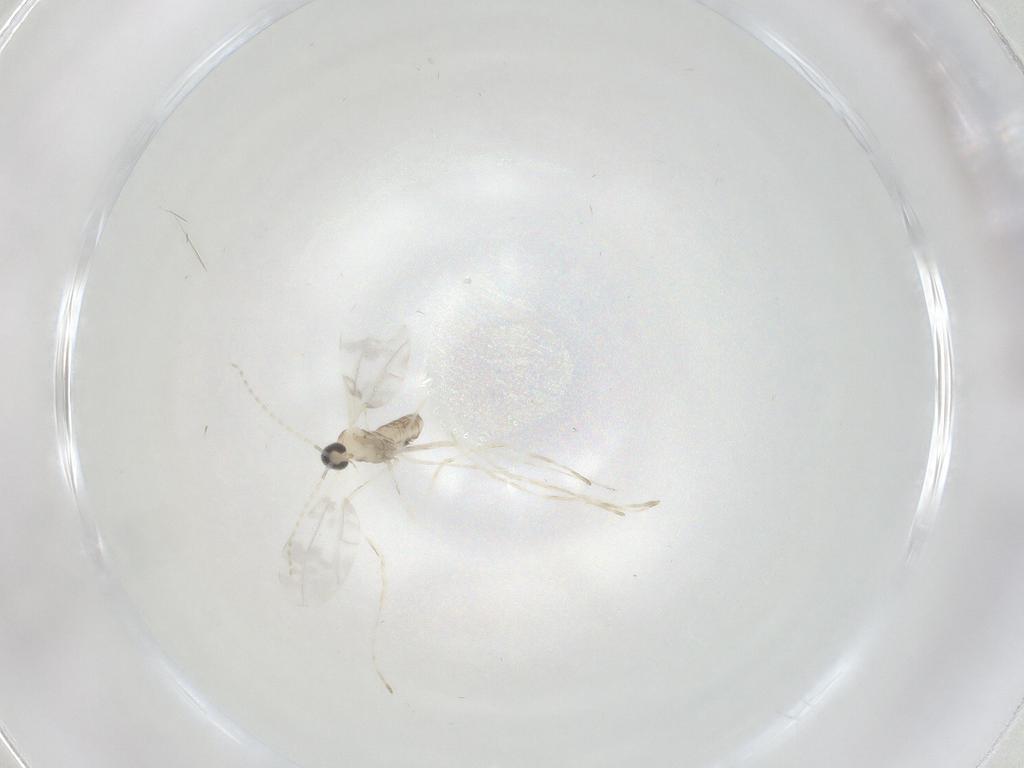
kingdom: Animalia
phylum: Arthropoda
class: Insecta
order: Diptera
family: Cecidomyiidae
